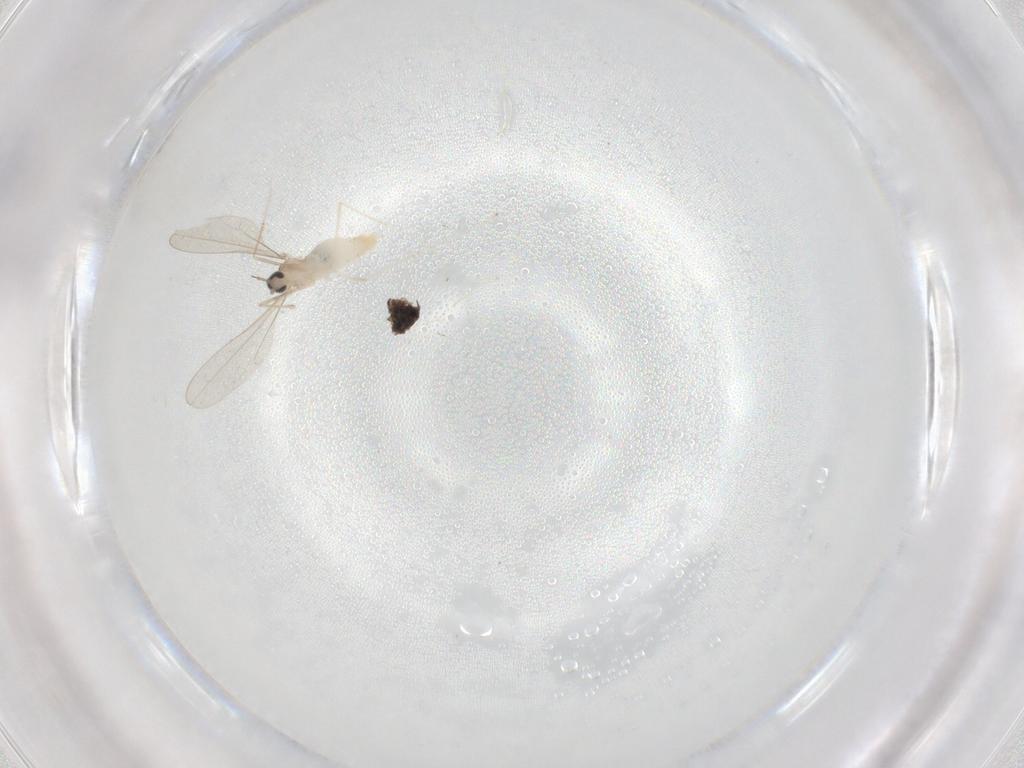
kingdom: Animalia
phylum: Arthropoda
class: Insecta
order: Diptera
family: Cecidomyiidae
